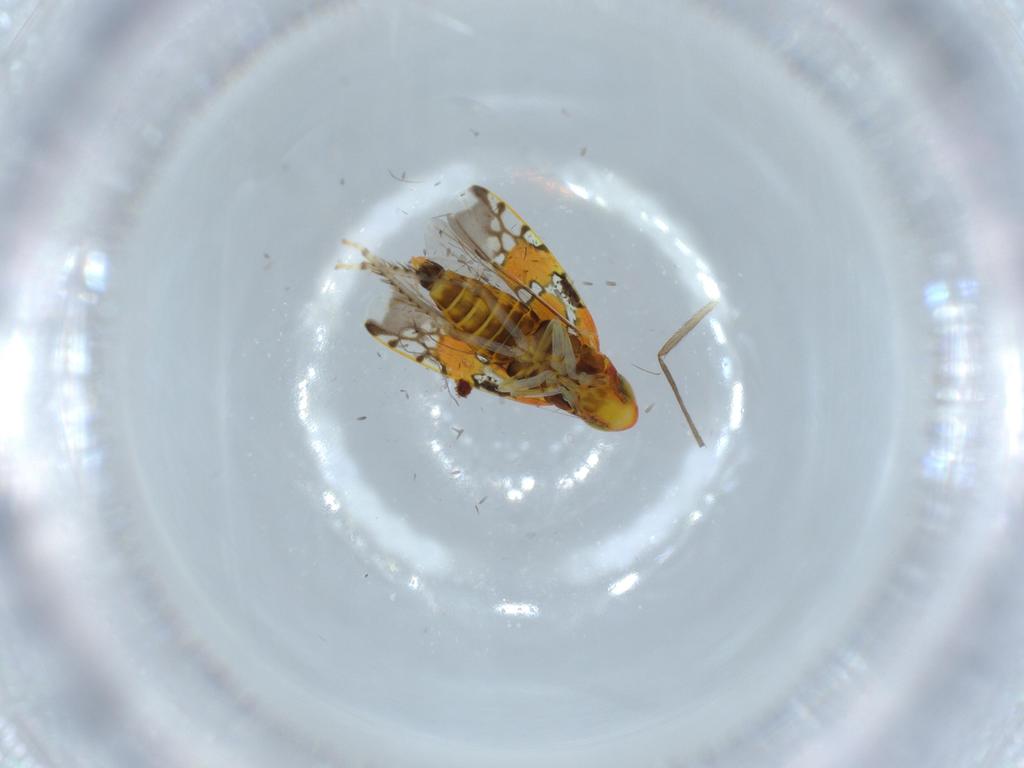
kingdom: Animalia
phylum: Arthropoda
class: Insecta
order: Hemiptera
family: Cicadellidae
